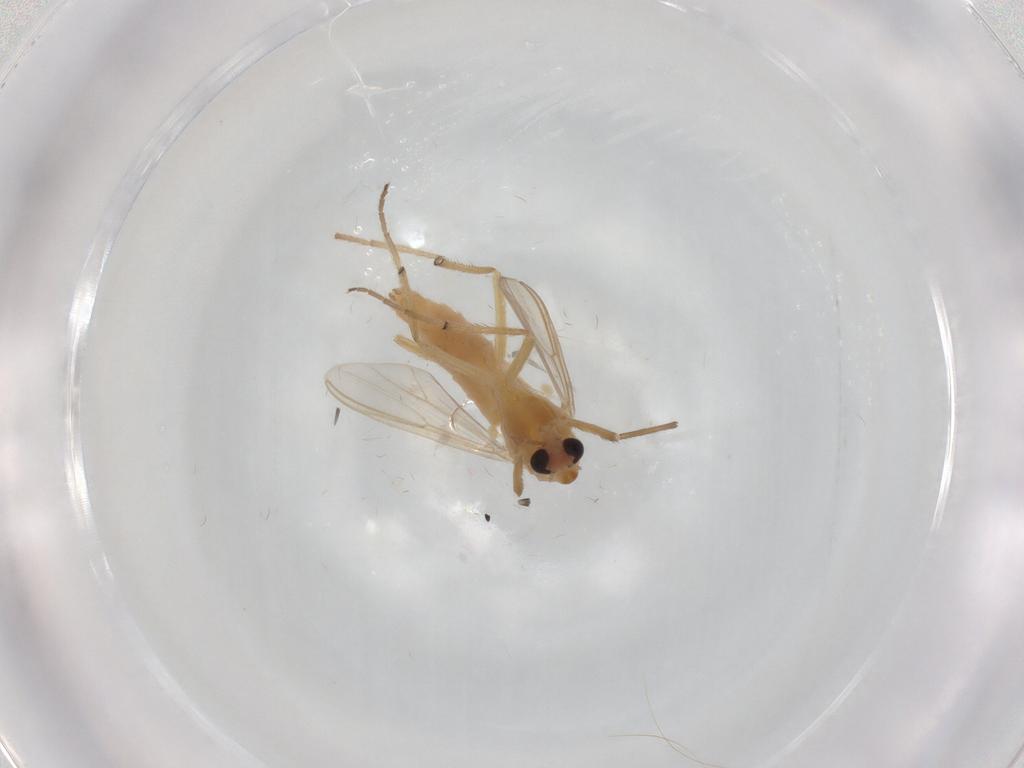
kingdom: Animalia
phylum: Arthropoda
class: Insecta
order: Diptera
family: Chironomidae
